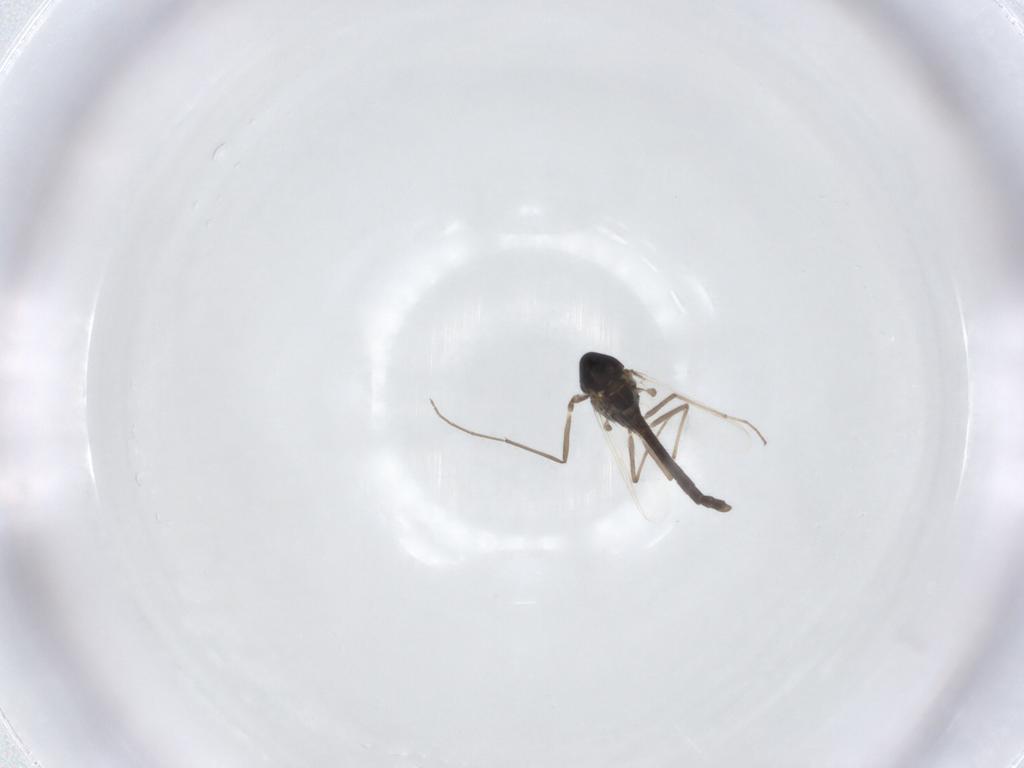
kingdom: Animalia
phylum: Arthropoda
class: Insecta
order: Diptera
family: Chironomidae
